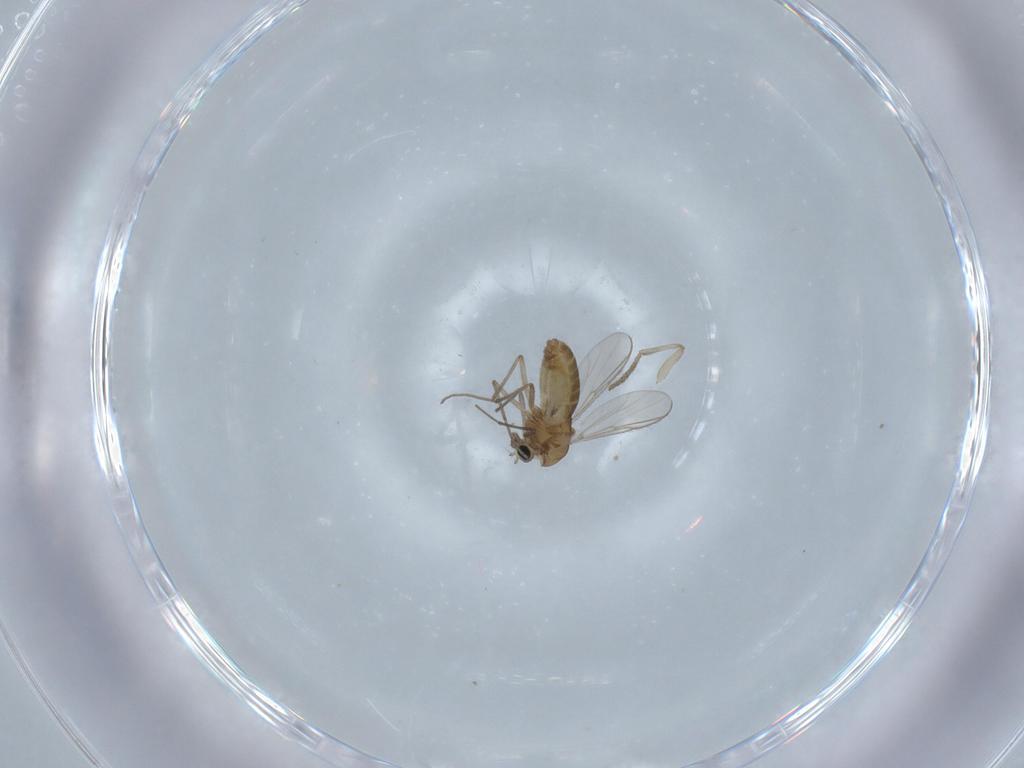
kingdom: Animalia
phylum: Arthropoda
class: Insecta
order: Diptera
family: Chironomidae
